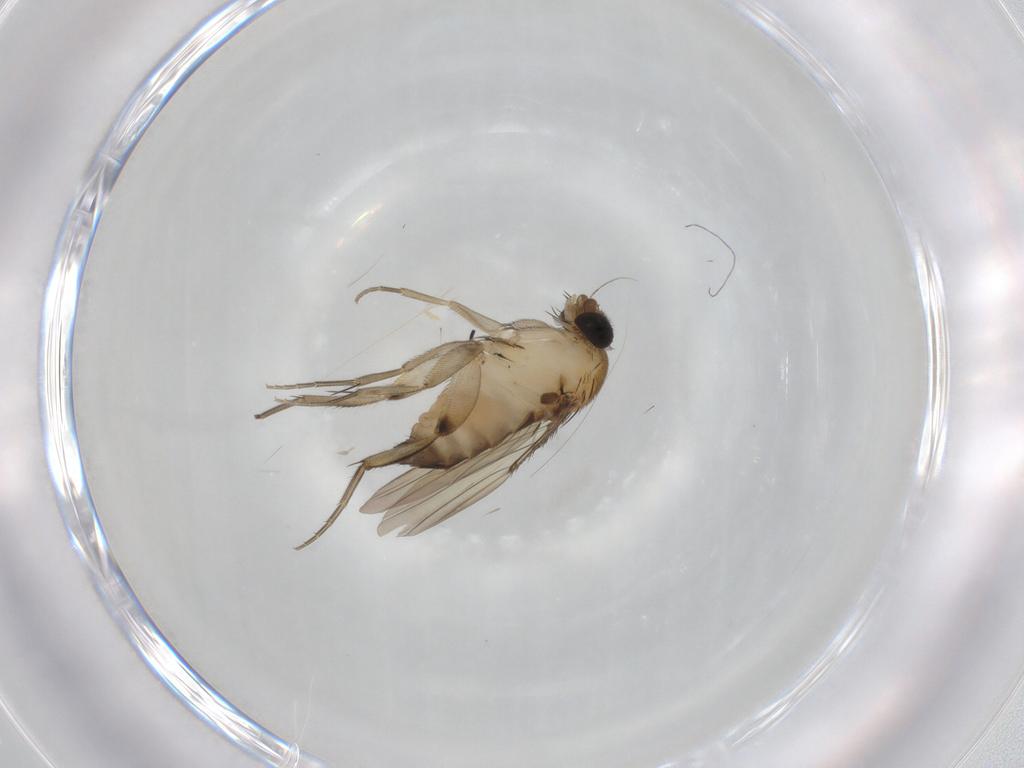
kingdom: Animalia
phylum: Arthropoda
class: Insecta
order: Diptera
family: Phoridae
